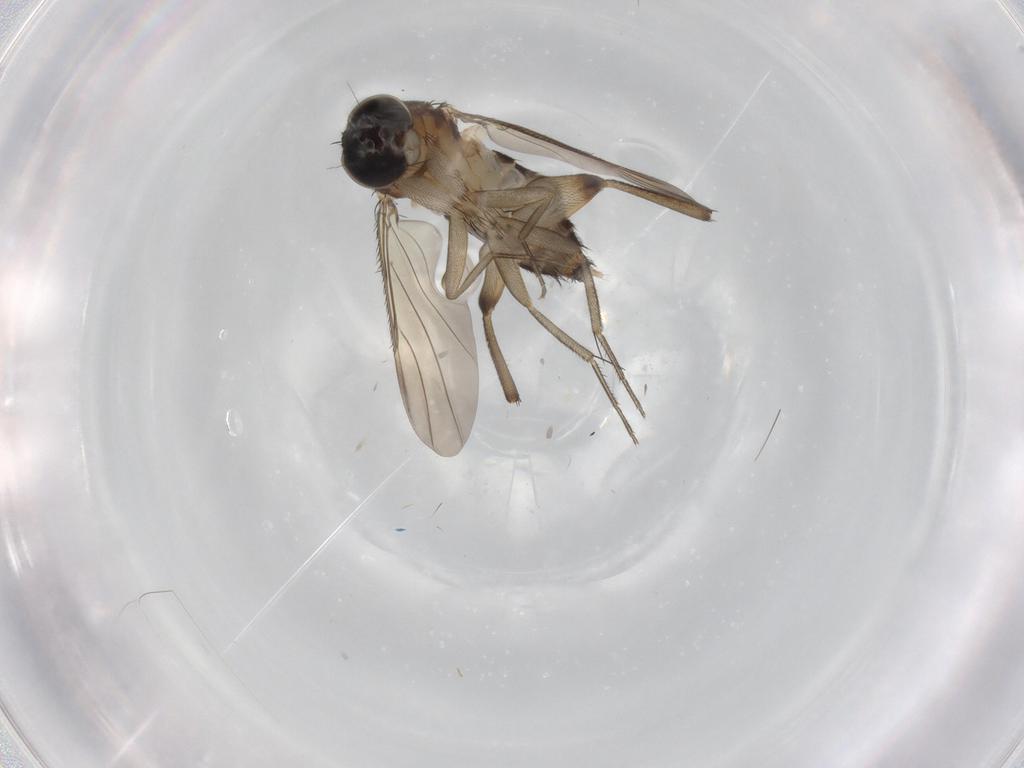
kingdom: Animalia
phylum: Arthropoda
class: Insecta
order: Diptera
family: Phoridae
